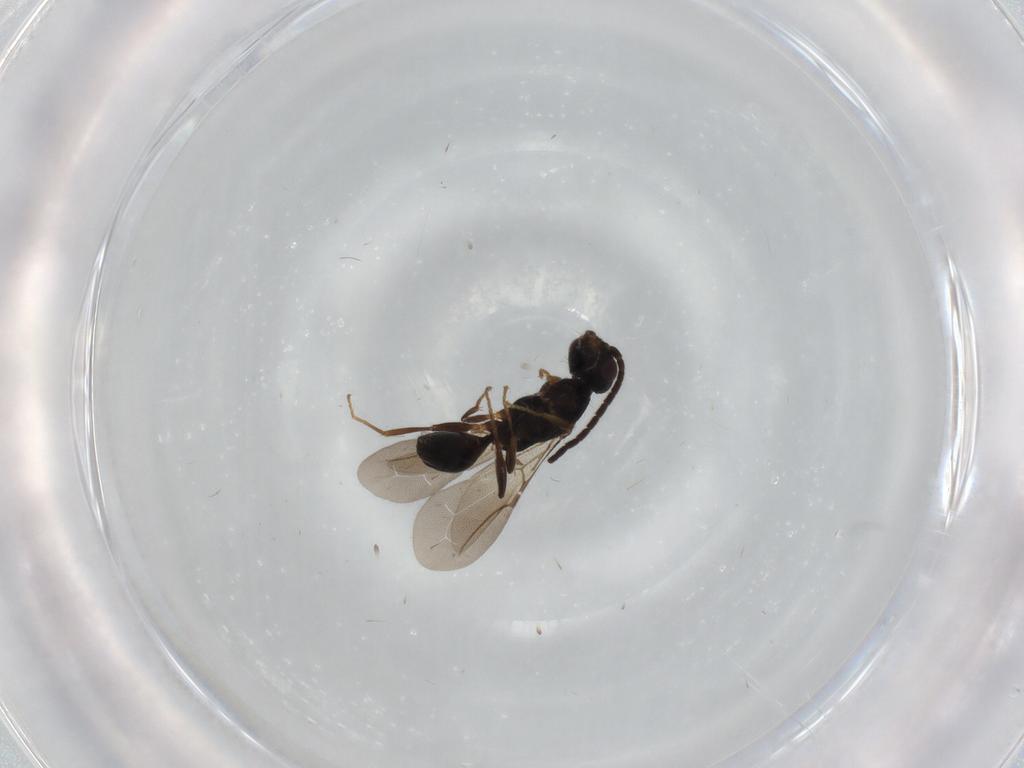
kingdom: Animalia
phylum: Arthropoda
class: Insecta
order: Hymenoptera
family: Bethylidae
